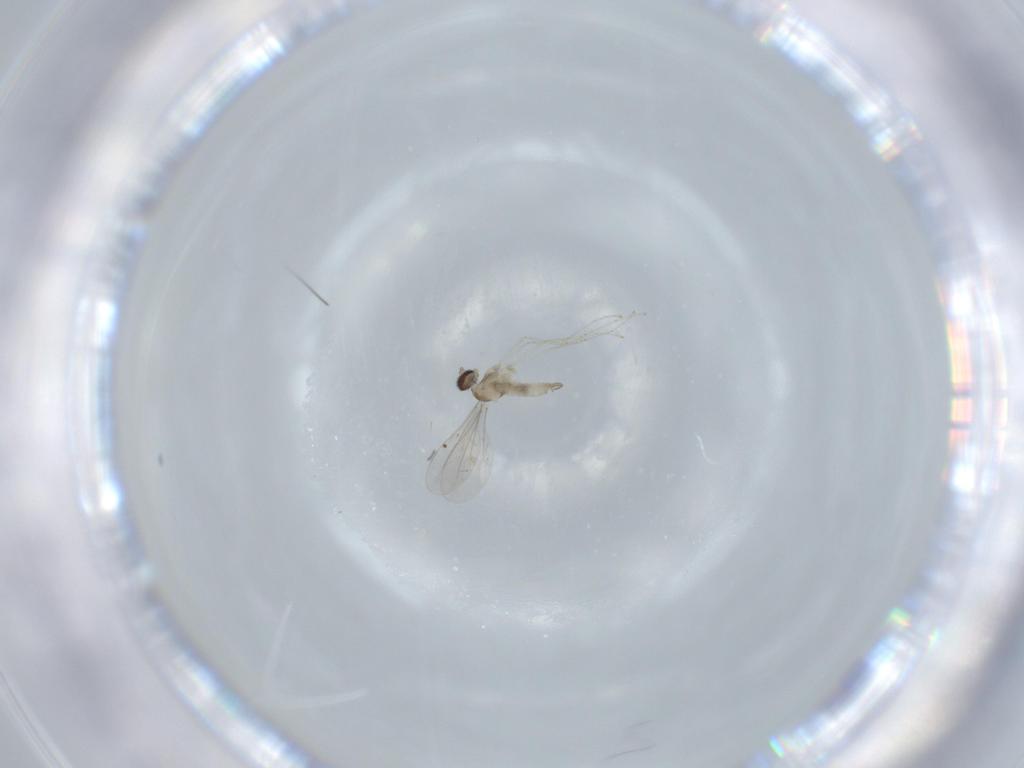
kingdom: Animalia
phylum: Arthropoda
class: Insecta
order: Diptera
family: Cecidomyiidae
